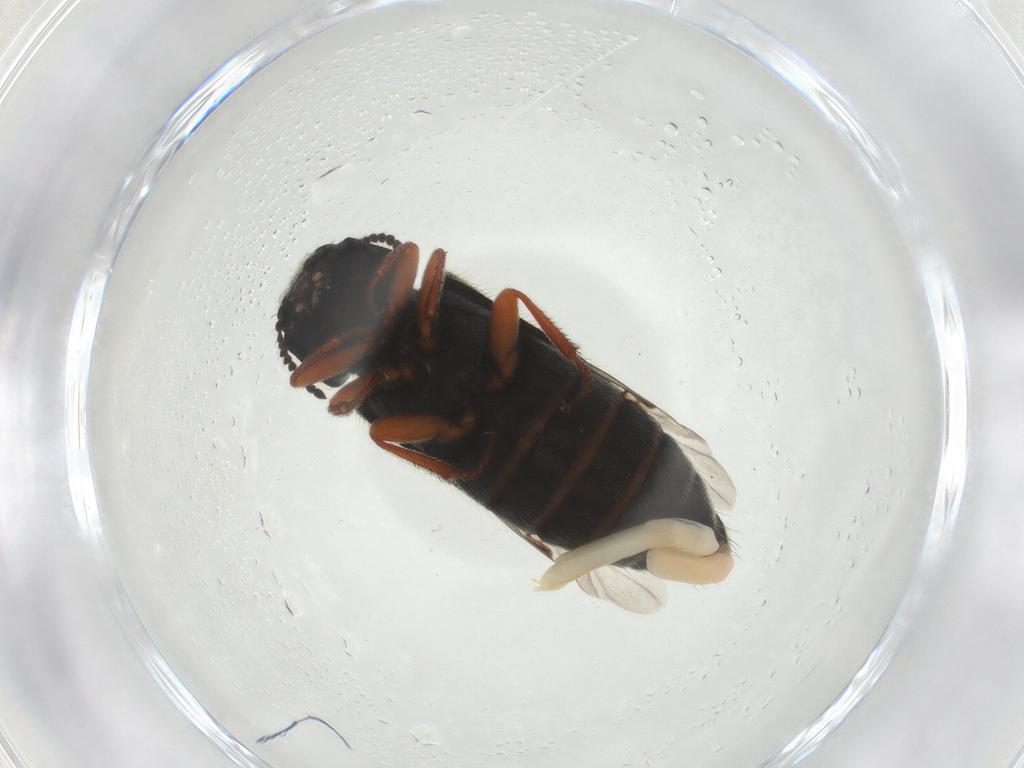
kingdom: Animalia
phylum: Arthropoda
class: Insecta
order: Coleoptera
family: Melyridae
